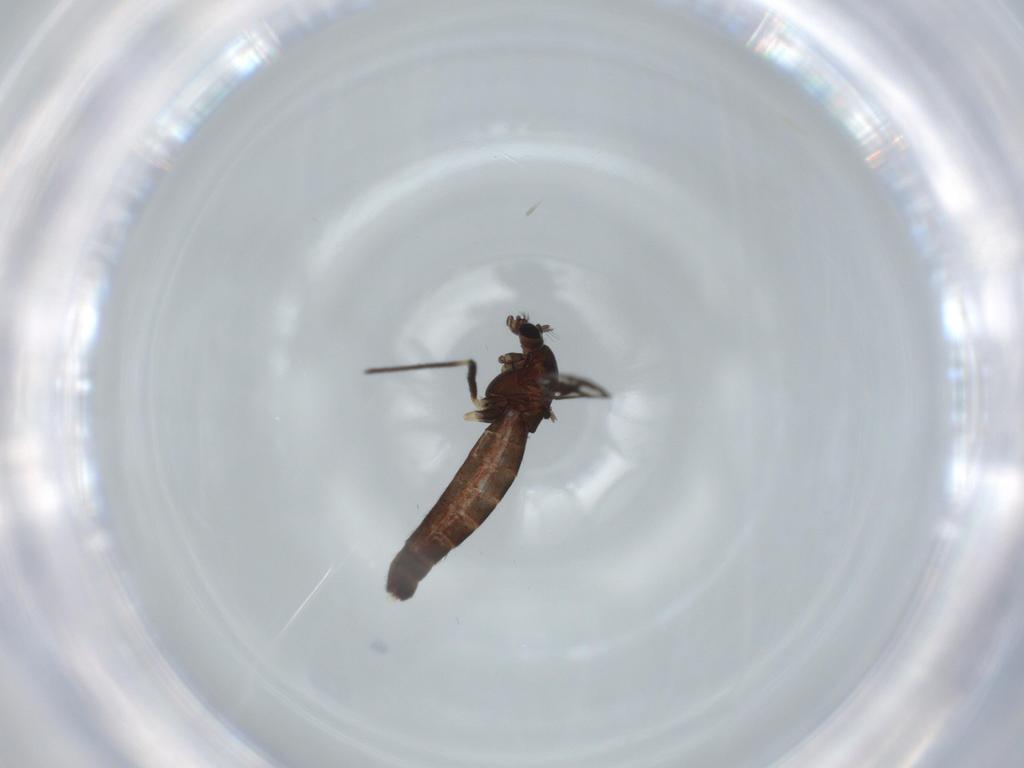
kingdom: Animalia
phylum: Arthropoda
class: Insecta
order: Diptera
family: Chironomidae
